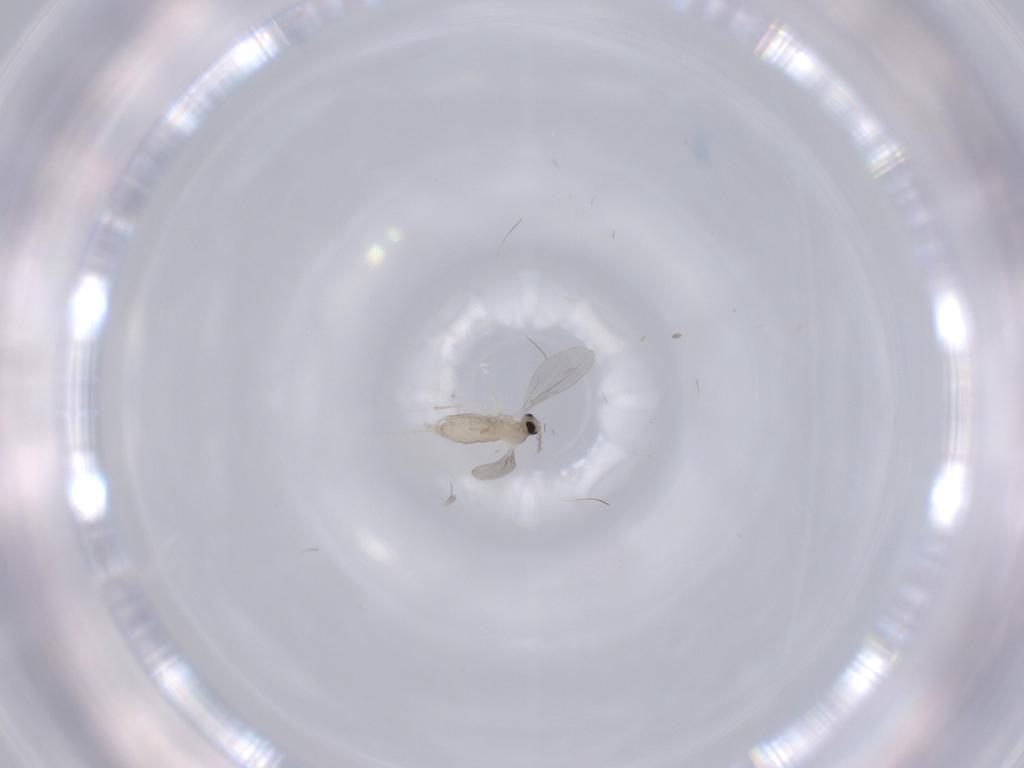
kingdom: Animalia
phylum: Arthropoda
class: Insecta
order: Diptera
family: Cecidomyiidae
